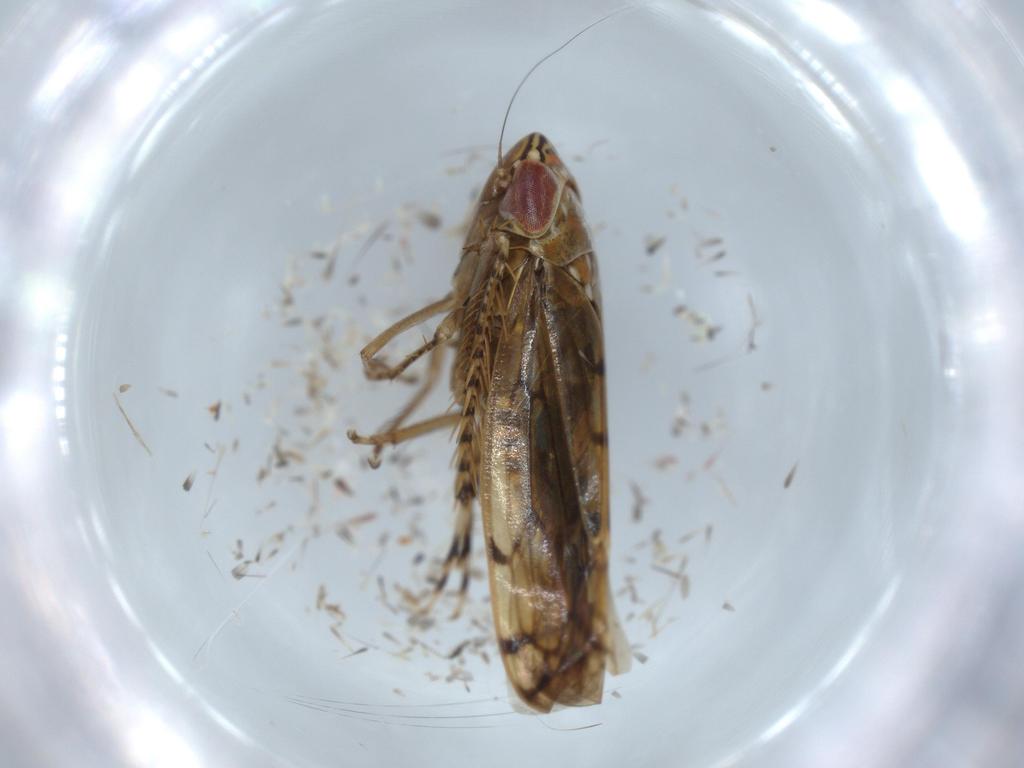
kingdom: Animalia
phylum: Arthropoda
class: Insecta
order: Hemiptera
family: Cicadellidae
